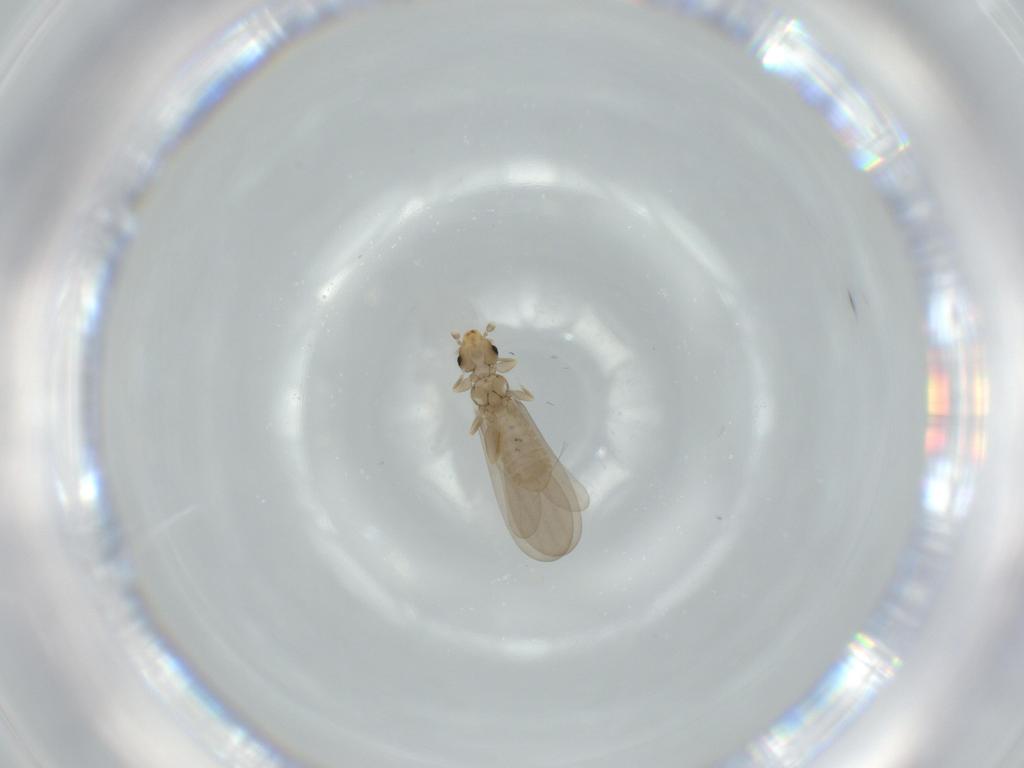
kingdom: Animalia
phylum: Arthropoda
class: Insecta
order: Psocodea
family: Liposcelididae
